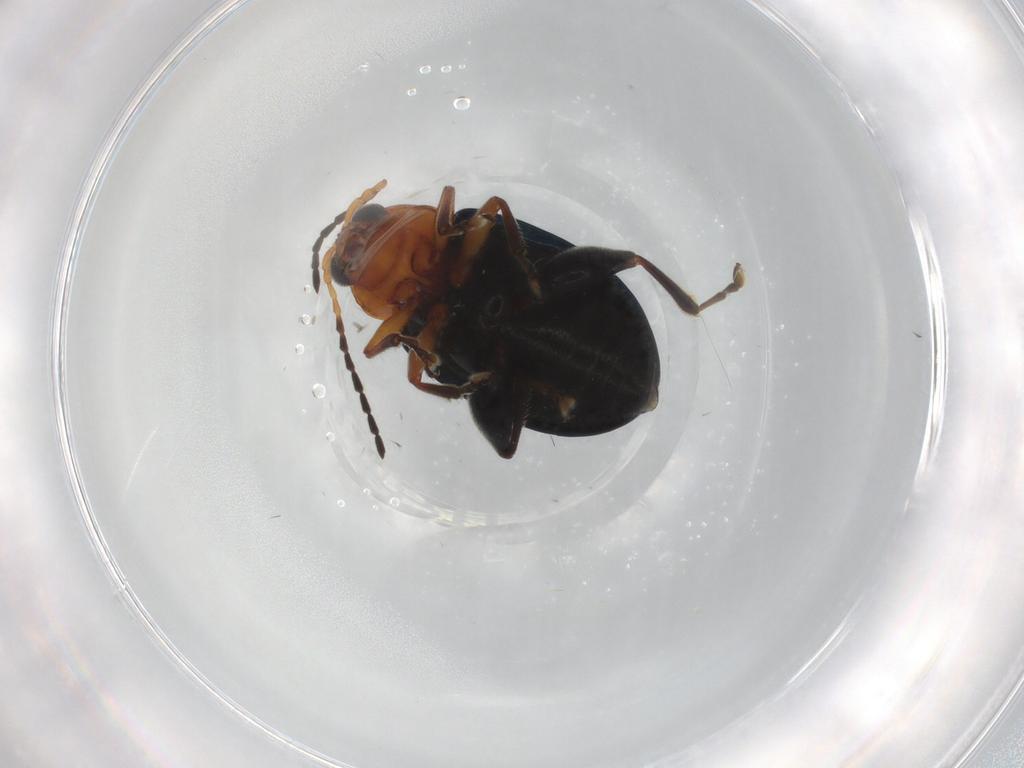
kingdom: Animalia
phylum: Arthropoda
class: Insecta
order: Coleoptera
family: Chrysomelidae
